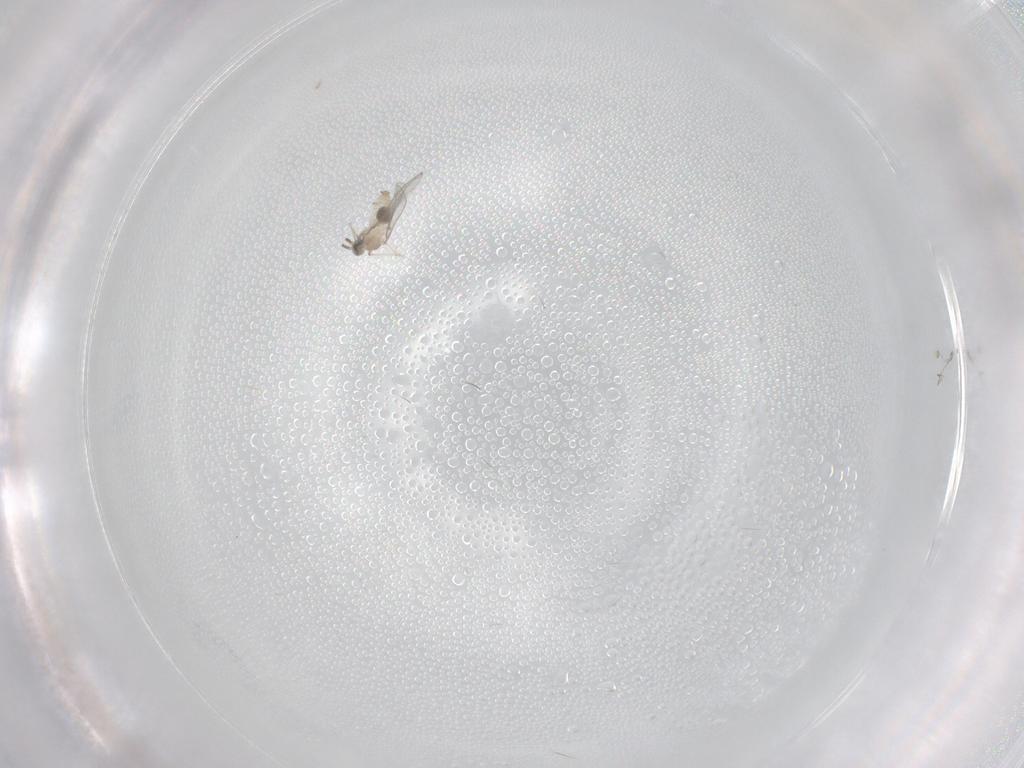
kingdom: Animalia
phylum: Arthropoda
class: Insecta
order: Diptera
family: Cecidomyiidae
